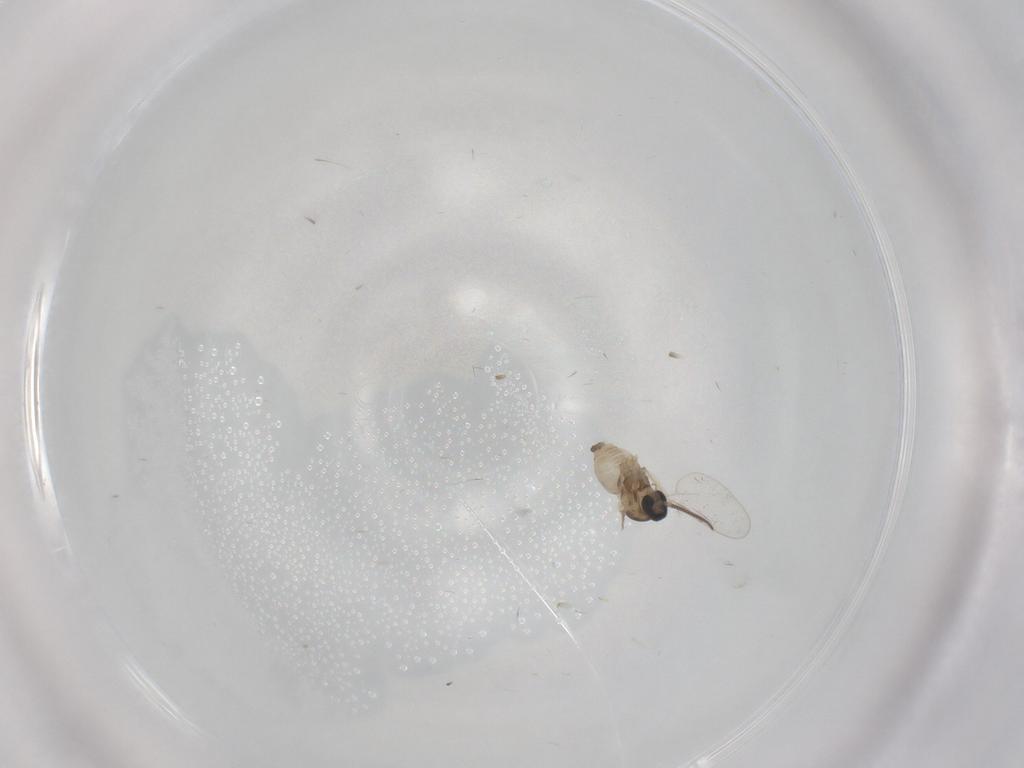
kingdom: Animalia
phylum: Arthropoda
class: Insecta
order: Diptera
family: Cecidomyiidae
